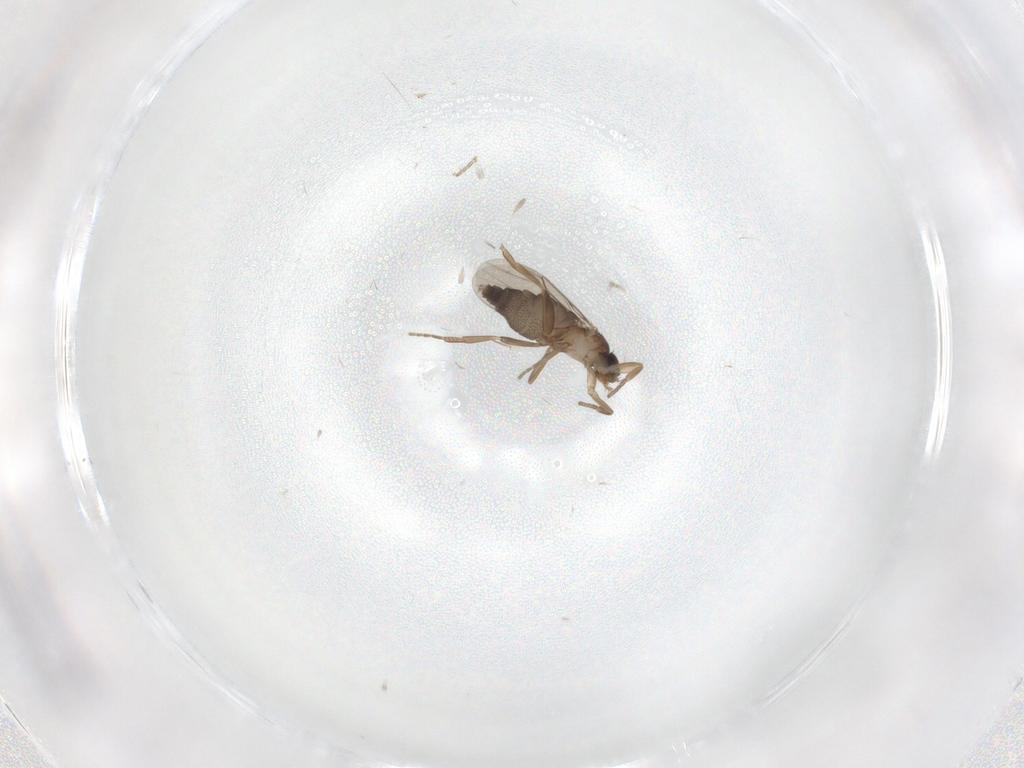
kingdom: Animalia
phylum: Arthropoda
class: Insecta
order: Diptera
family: Phoridae
